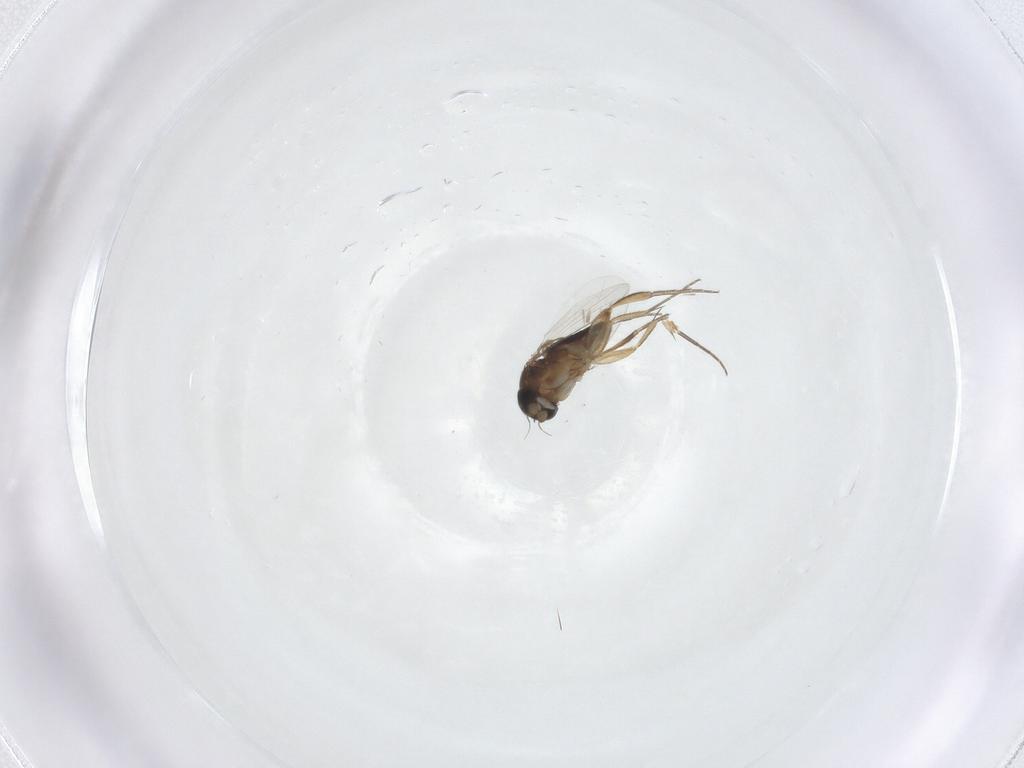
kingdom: Animalia
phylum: Arthropoda
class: Insecta
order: Diptera
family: Phoridae
